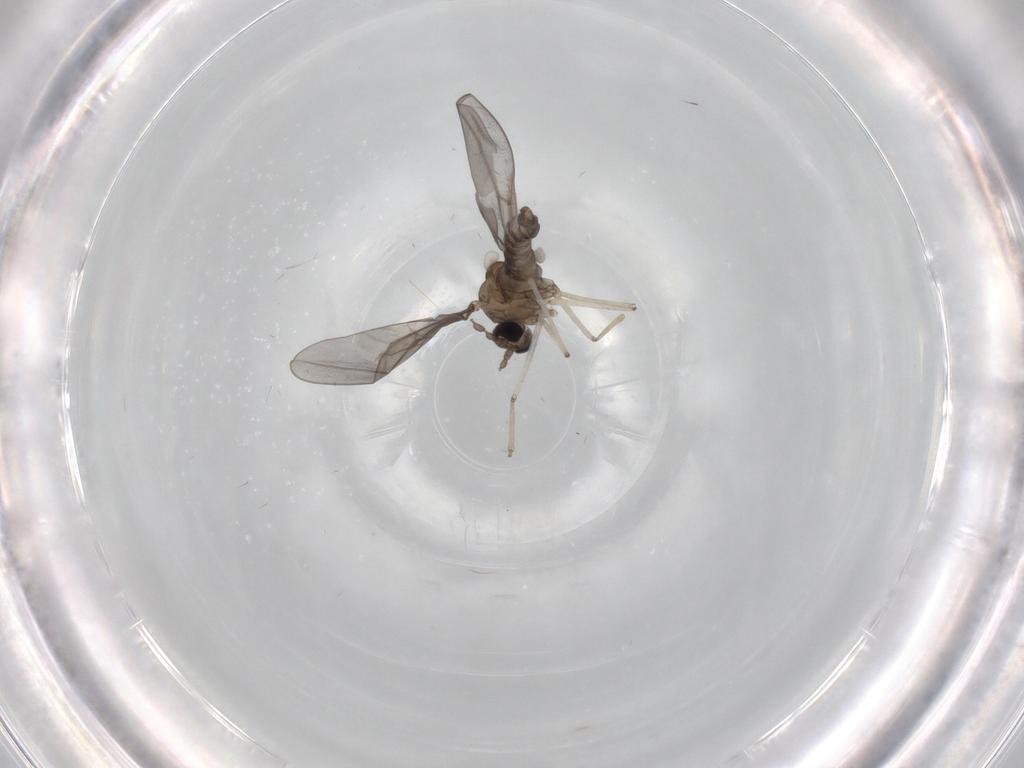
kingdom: Animalia
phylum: Arthropoda
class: Insecta
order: Diptera
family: Cecidomyiidae
